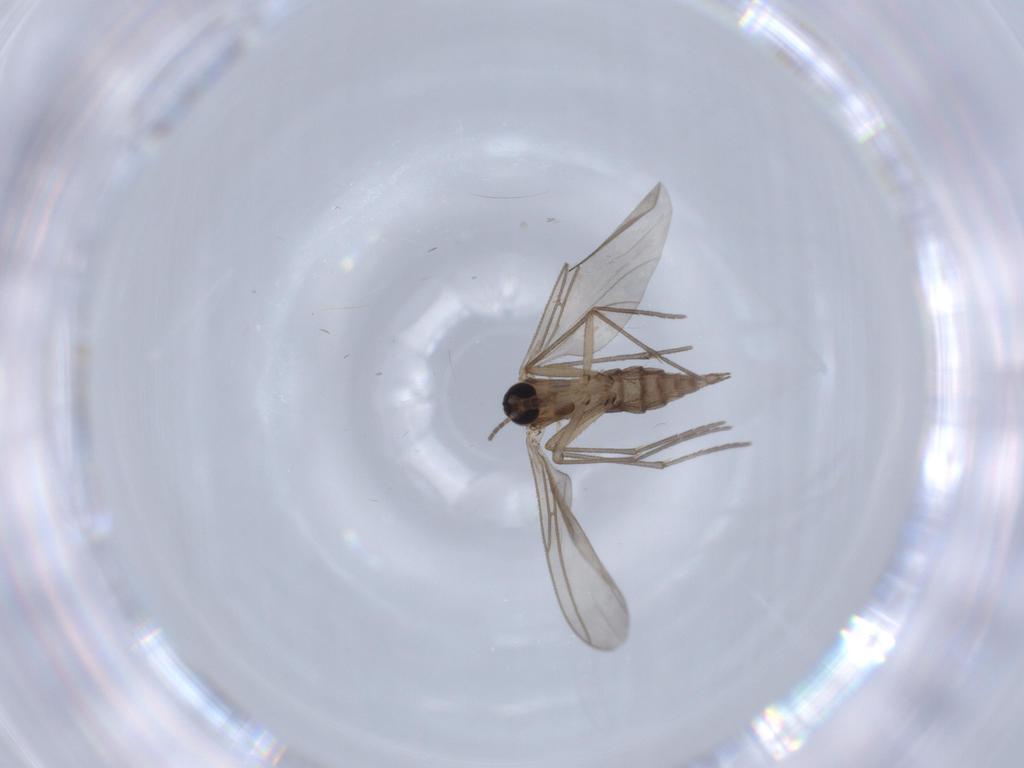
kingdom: Animalia
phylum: Arthropoda
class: Insecta
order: Diptera
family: Sciaridae
